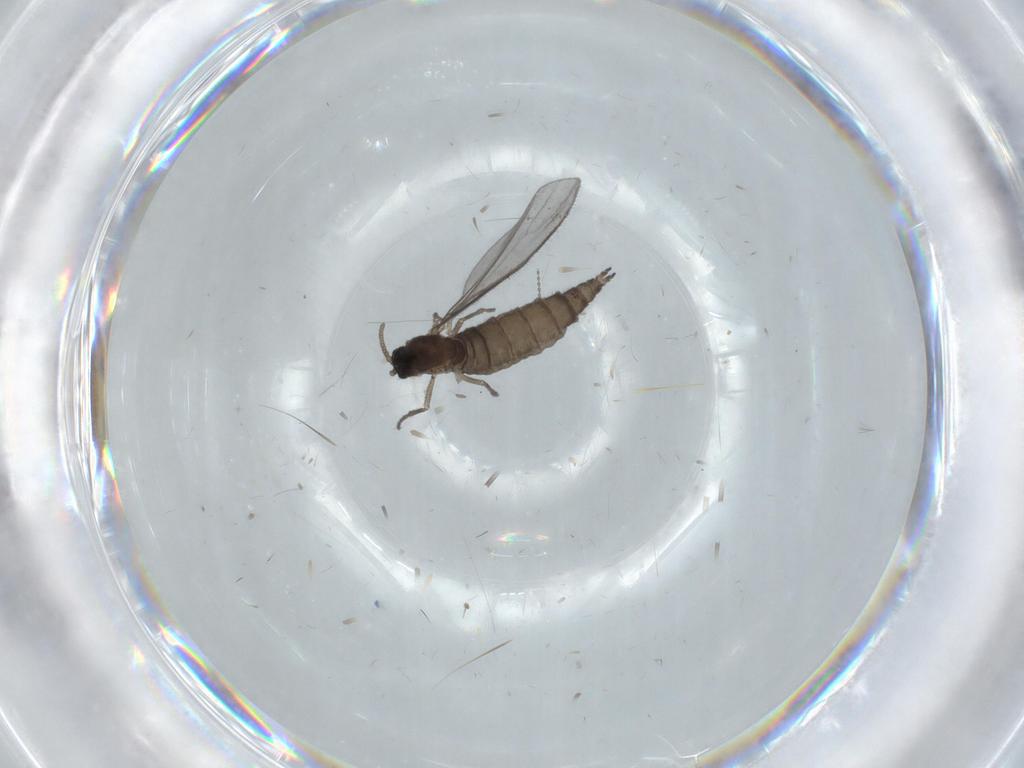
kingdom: Animalia
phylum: Arthropoda
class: Insecta
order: Diptera
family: Sciaridae
